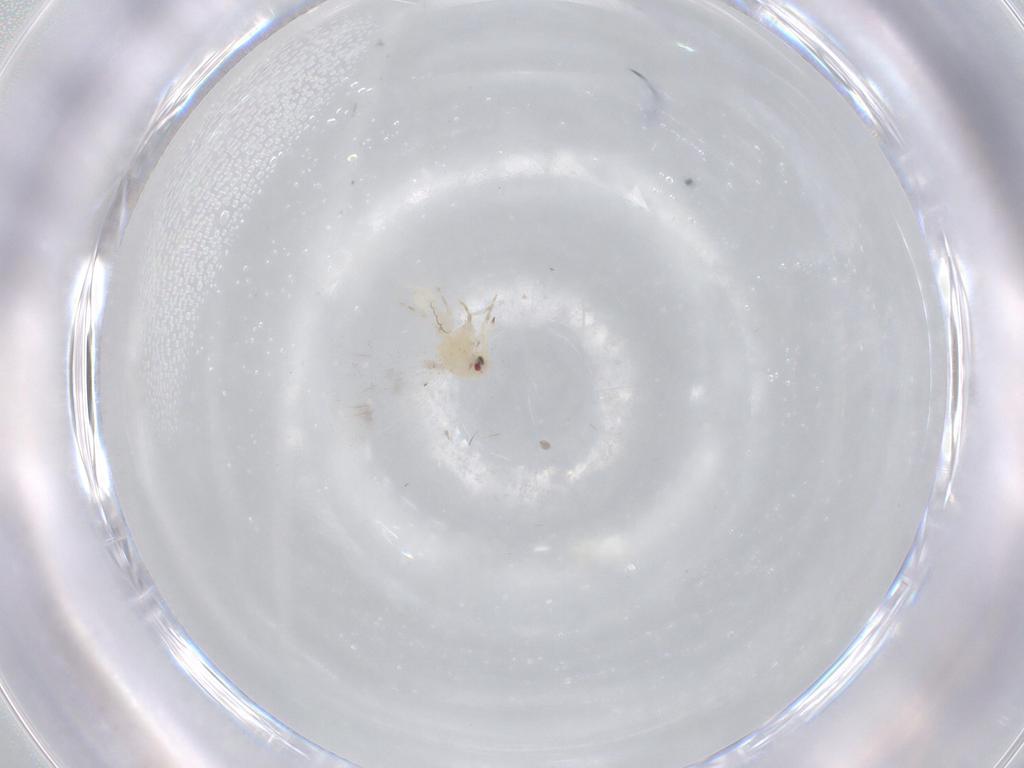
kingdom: Animalia
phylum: Arthropoda
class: Insecta
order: Hemiptera
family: Aleyrodidae
